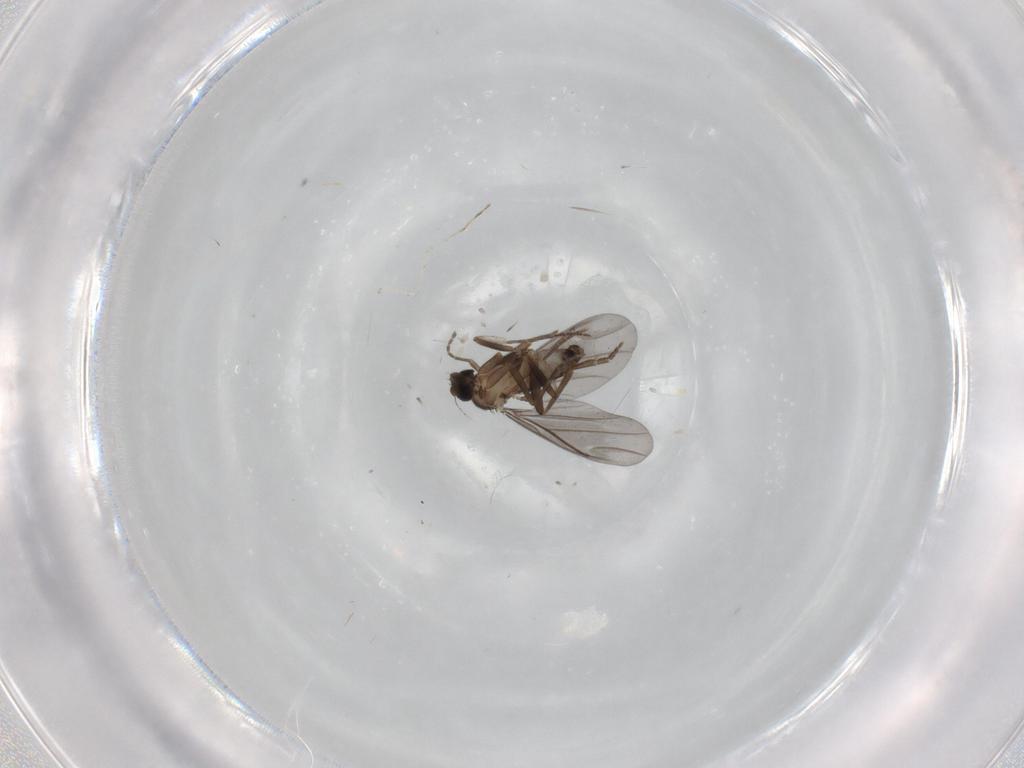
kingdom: Animalia
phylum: Arthropoda
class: Insecta
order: Diptera
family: Phoridae
